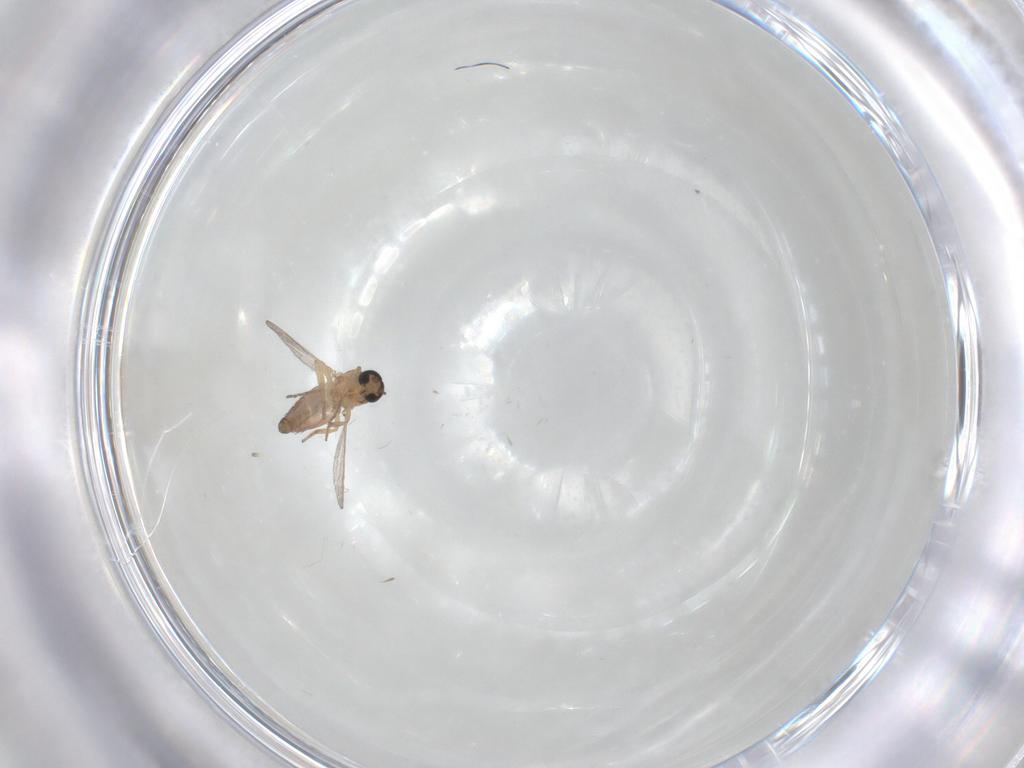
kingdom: Animalia
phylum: Arthropoda
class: Insecta
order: Diptera
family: Ceratopogonidae
